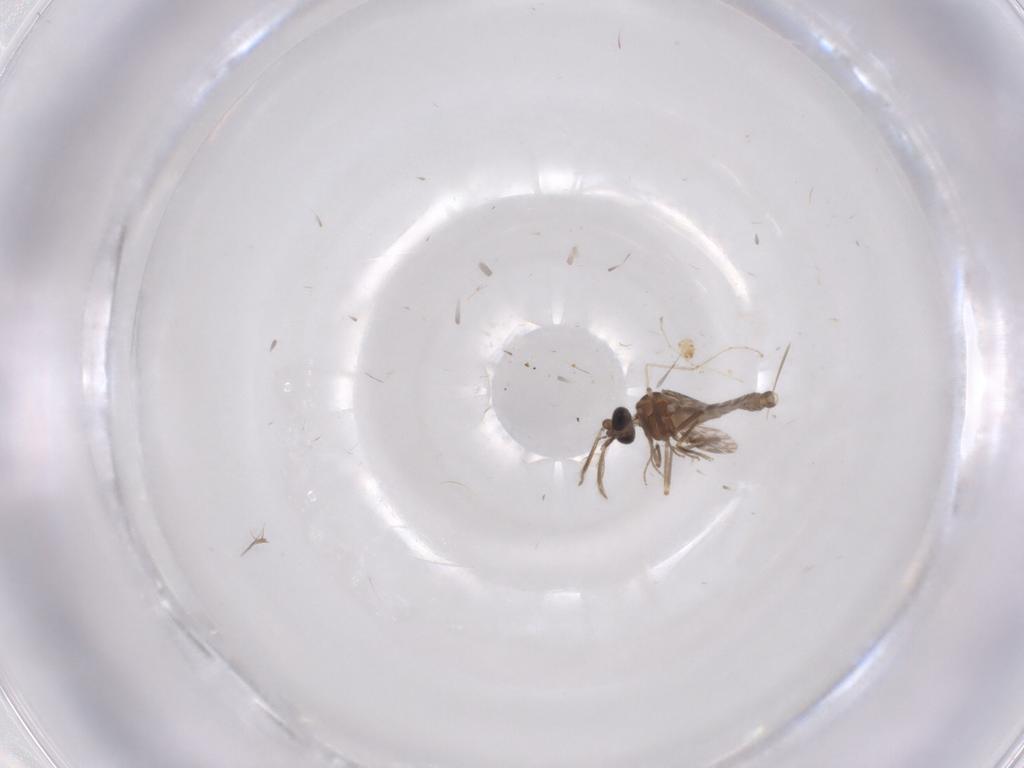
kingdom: Animalia
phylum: Arthropoda
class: Insecta
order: Diptera
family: Ceratopogonidae
